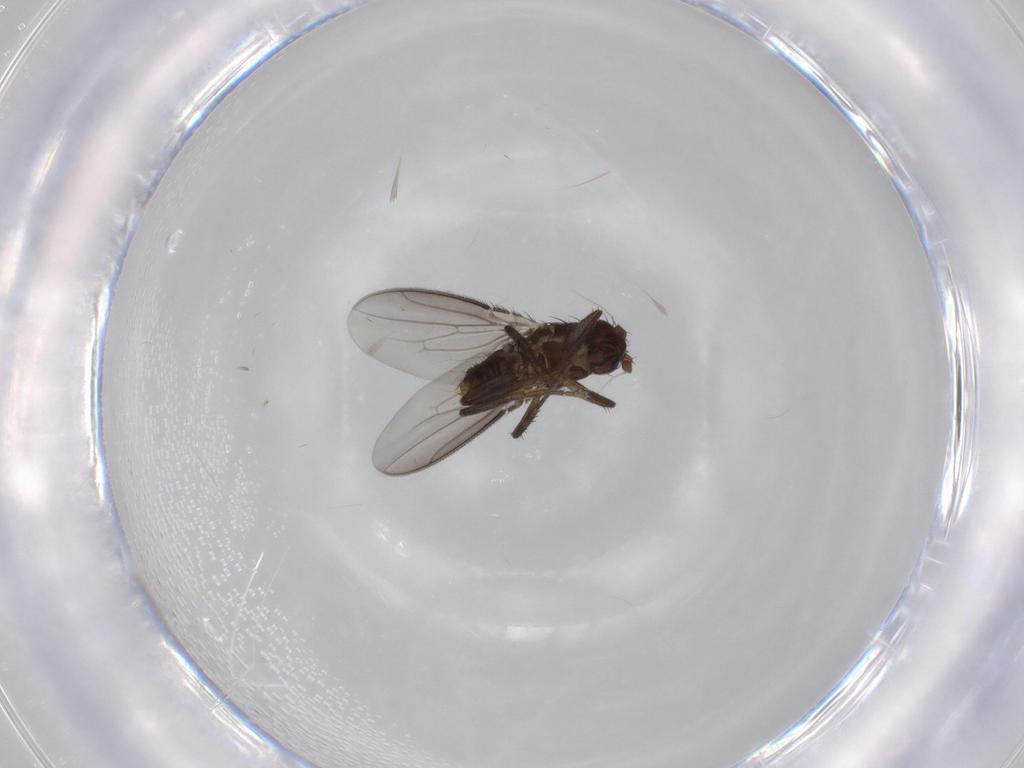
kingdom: Animalia
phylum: Arthropoda
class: Insecta
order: Diptera
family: Sphaeroceridae
